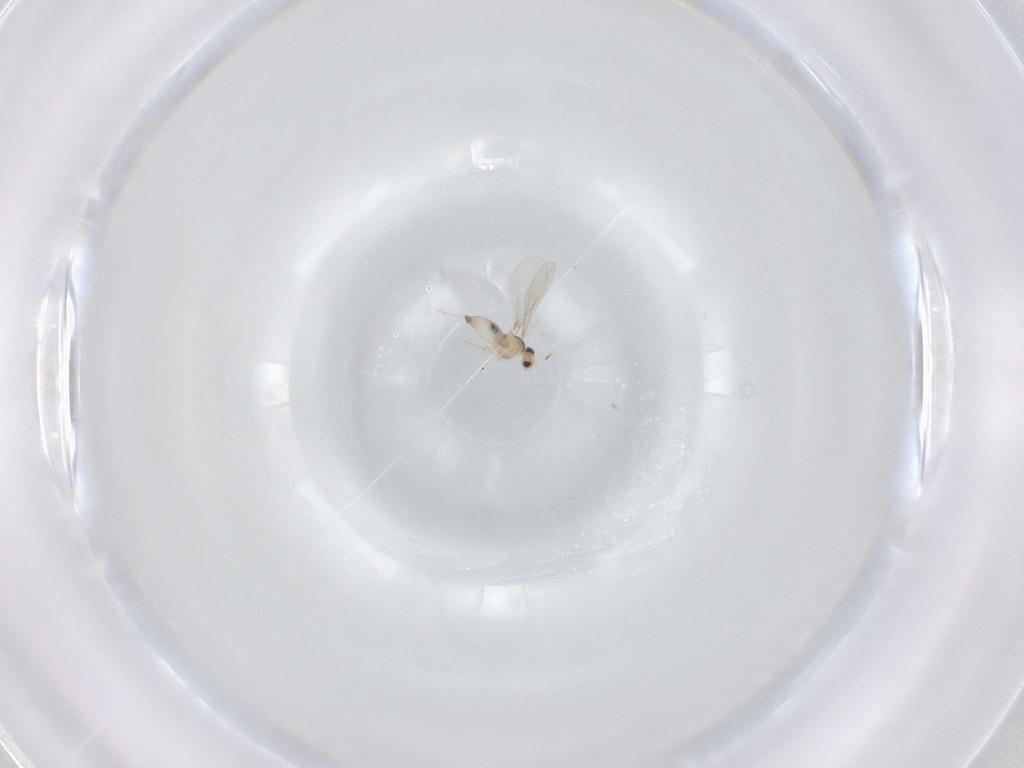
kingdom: Animalia
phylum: Arthropoda
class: Insecta
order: Diptera
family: Cecidomyiidae
